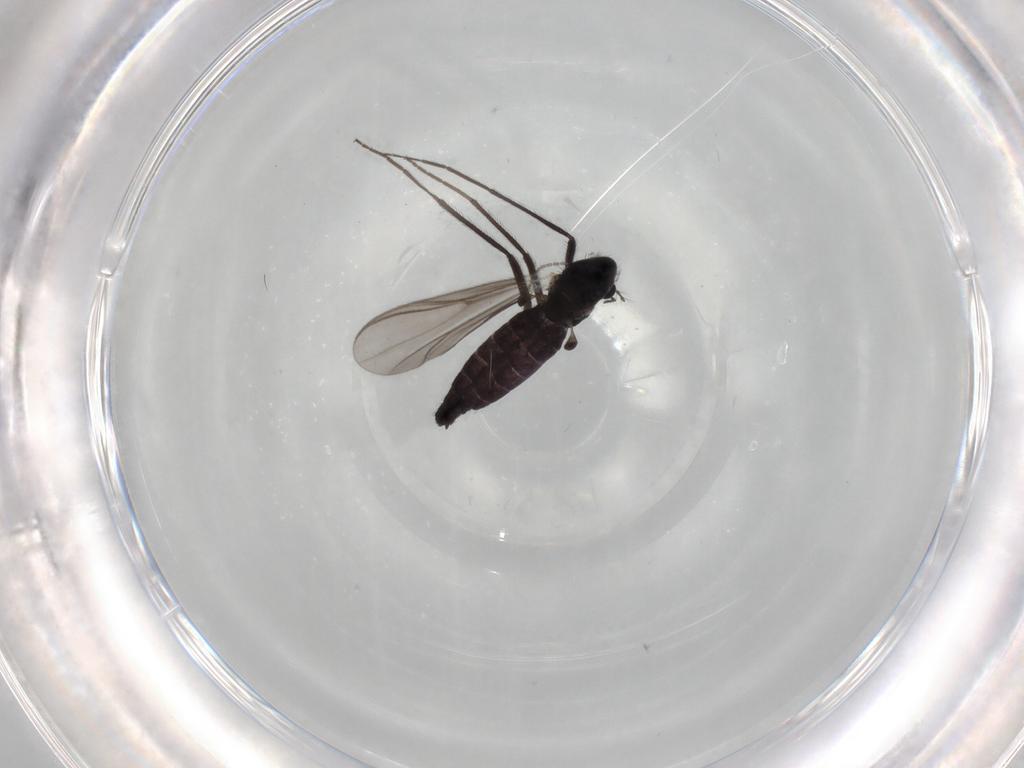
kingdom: Animalia
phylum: Arthropoda
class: Insecta
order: Diptera
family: Chironomidae
